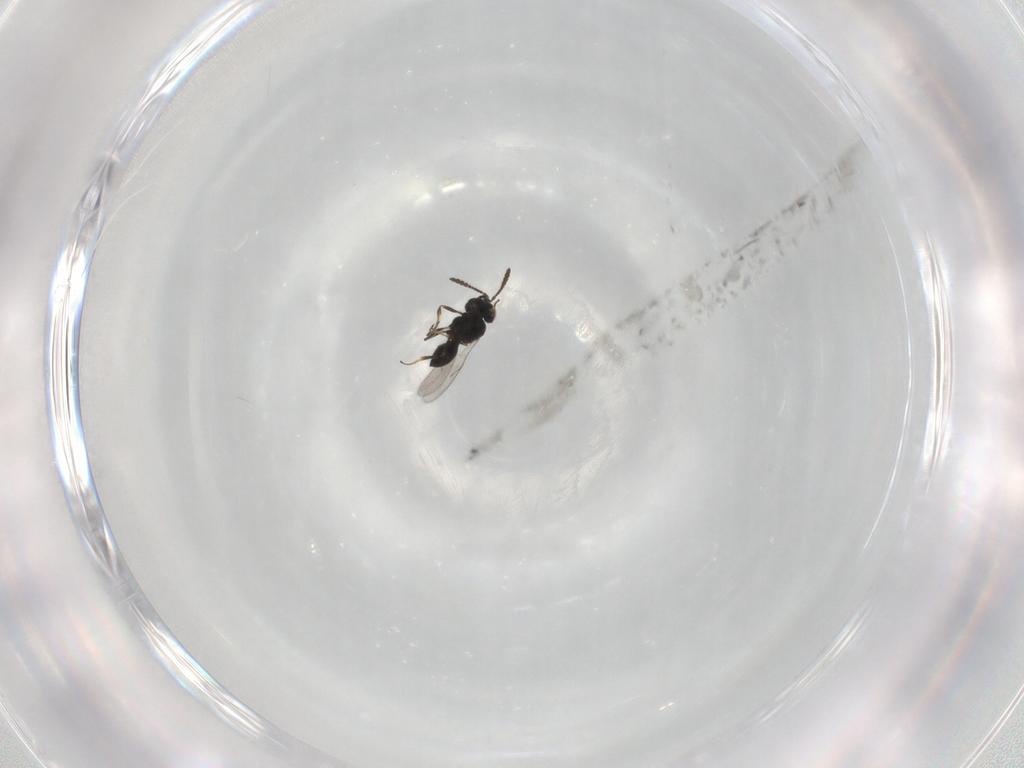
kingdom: Animalia
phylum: Arthropoda
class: Insecta
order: Hymenoptera
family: Scelionidae
